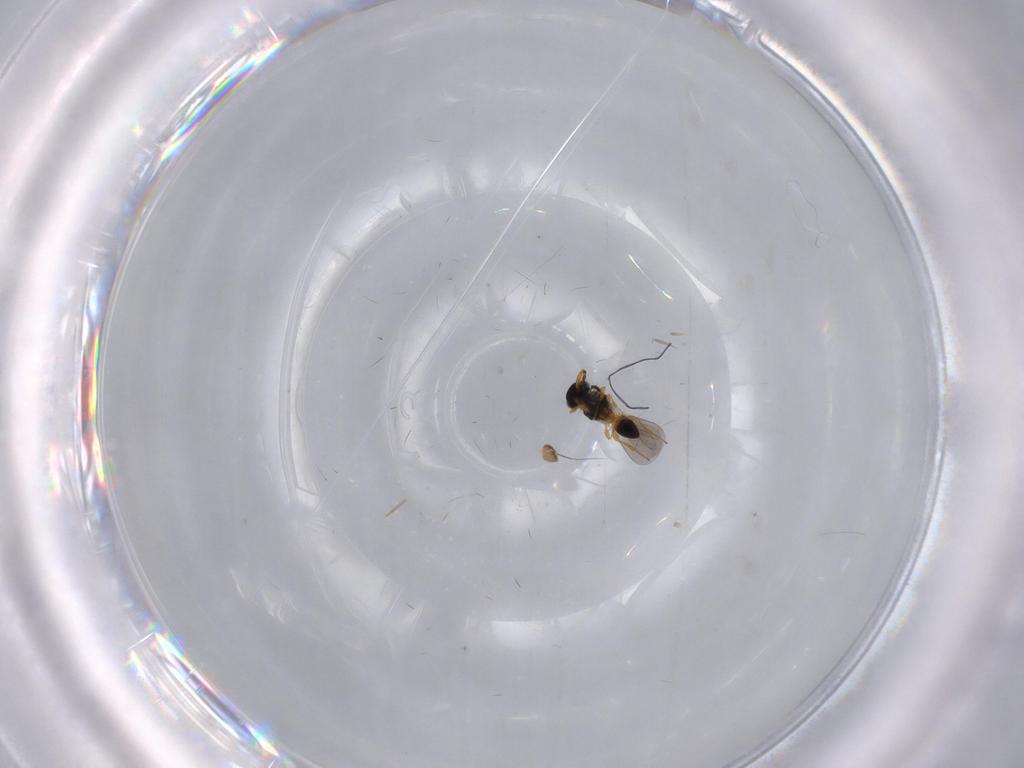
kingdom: Animalia
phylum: Arthropoda
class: Insecta
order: Hymenoptera
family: Platygastridae
